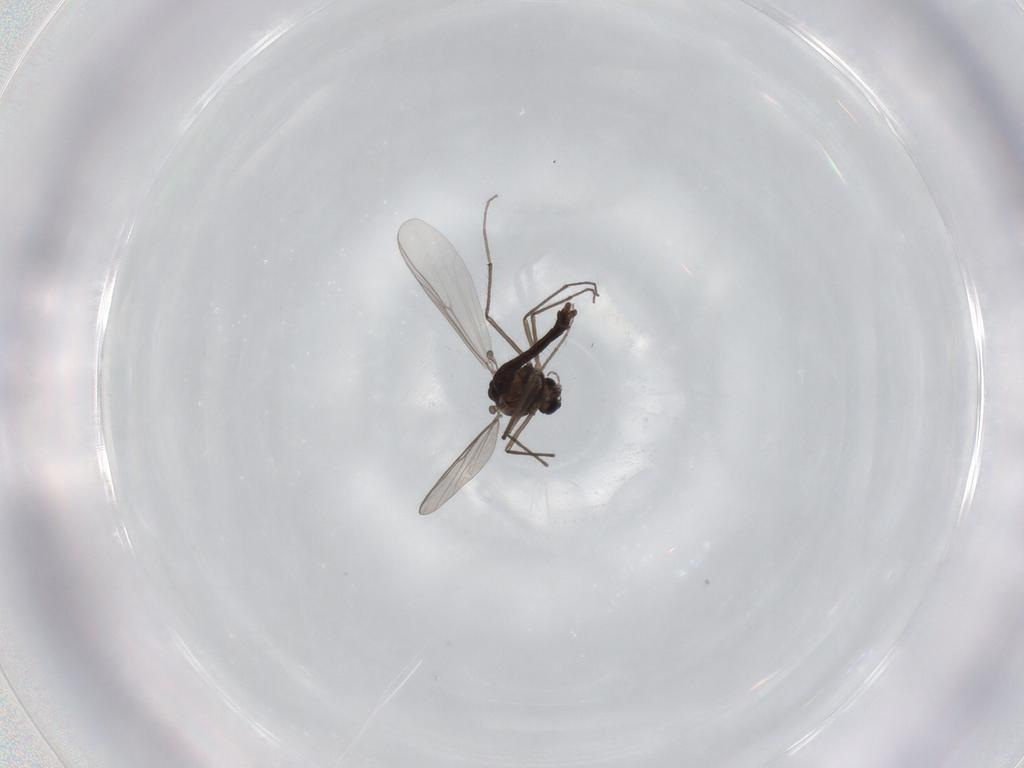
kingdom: Animalia
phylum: Arthropoda
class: Insecta
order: Diptera
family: Chironomidae
